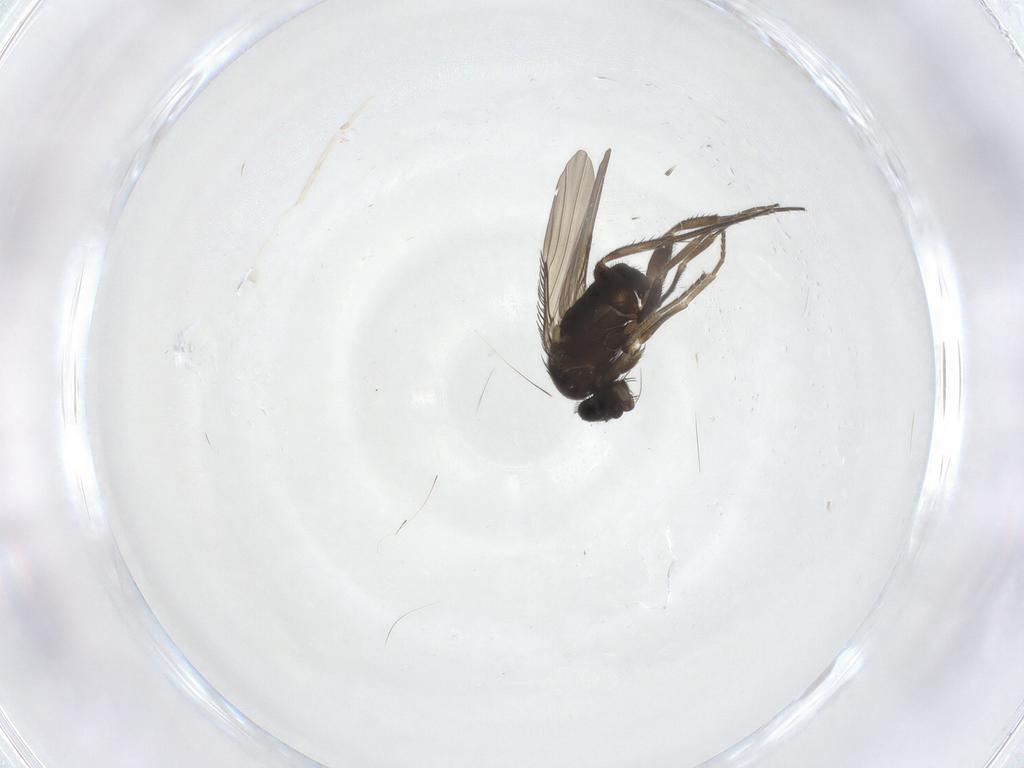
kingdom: Animalia
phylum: Arthropoda
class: Insecta
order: Diptera
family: Phoridae
